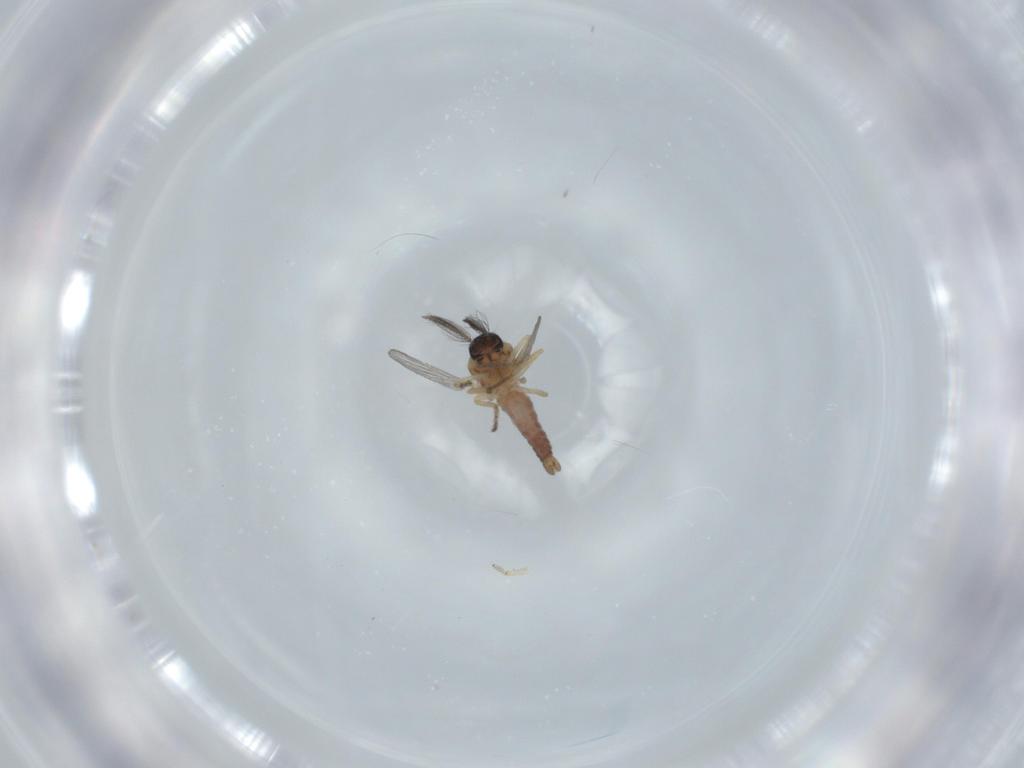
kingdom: Animalia
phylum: Arthropoda
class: Insecta
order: Diptera
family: Ceratopogonidae
